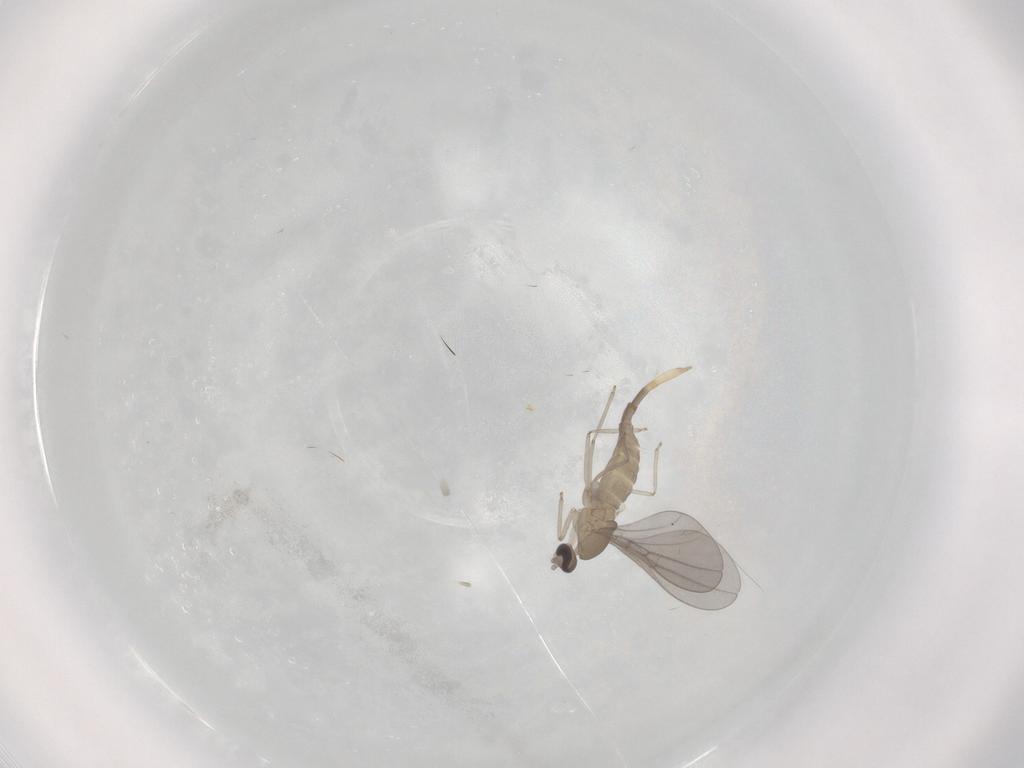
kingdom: Animalia
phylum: Arthropoda
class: Insecta
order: Diptera
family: Cecidomyiidae
